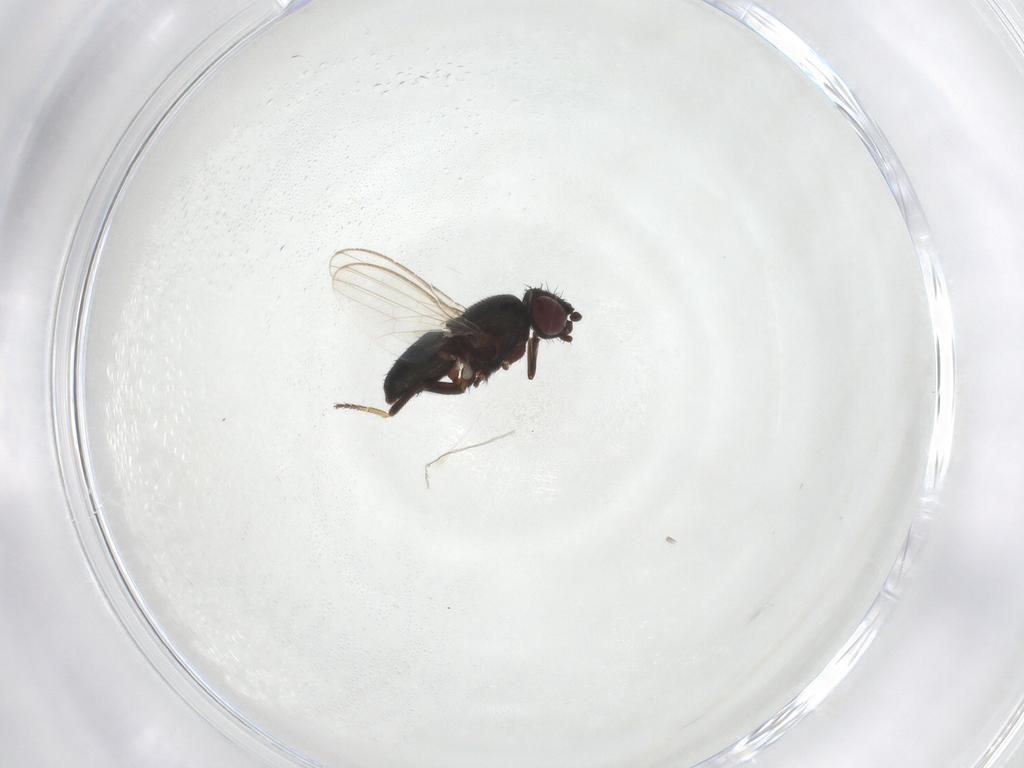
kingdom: Animalia
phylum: Arthropoda
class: Insecta
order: Diptera
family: Milichiidae
